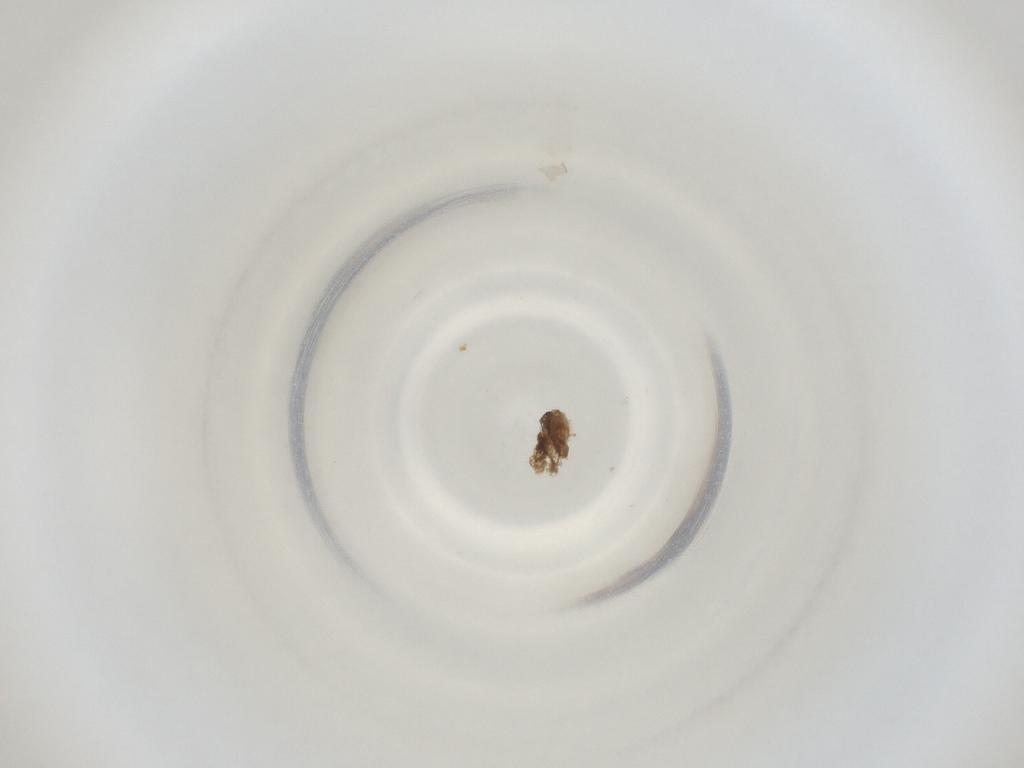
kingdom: Animalia
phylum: Arthropoda
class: Insecta
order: Diptera
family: Cecidomyiidae
